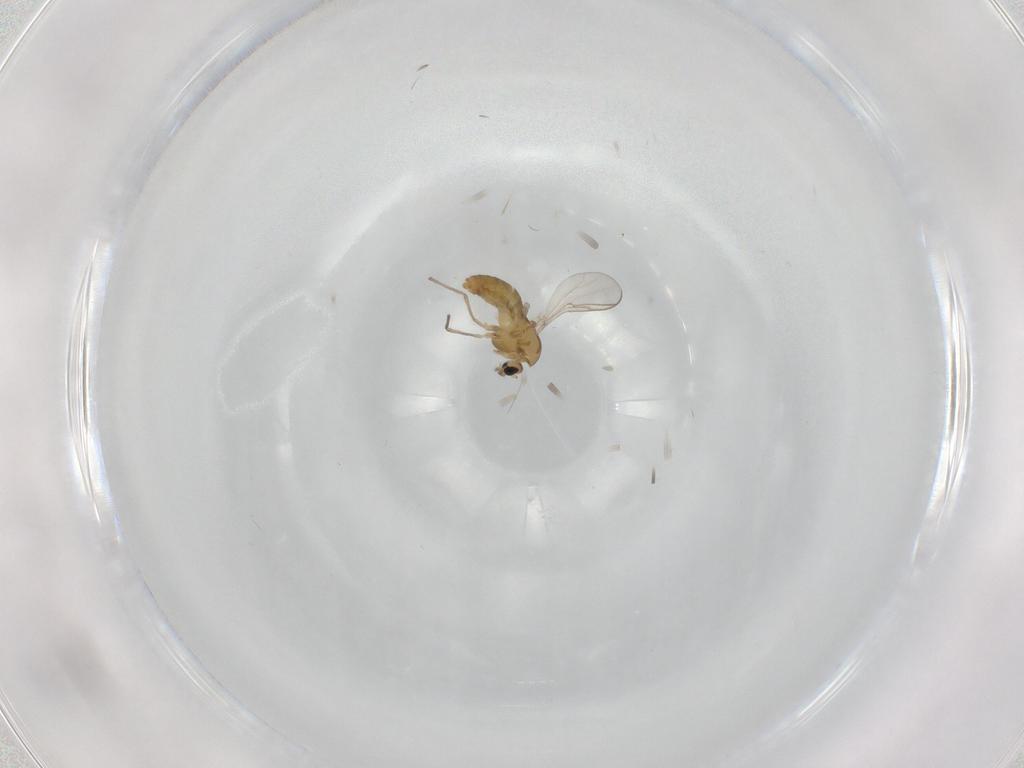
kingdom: Animalia
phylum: Arthropoda
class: Insecta
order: Diptera
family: Chironomidae
